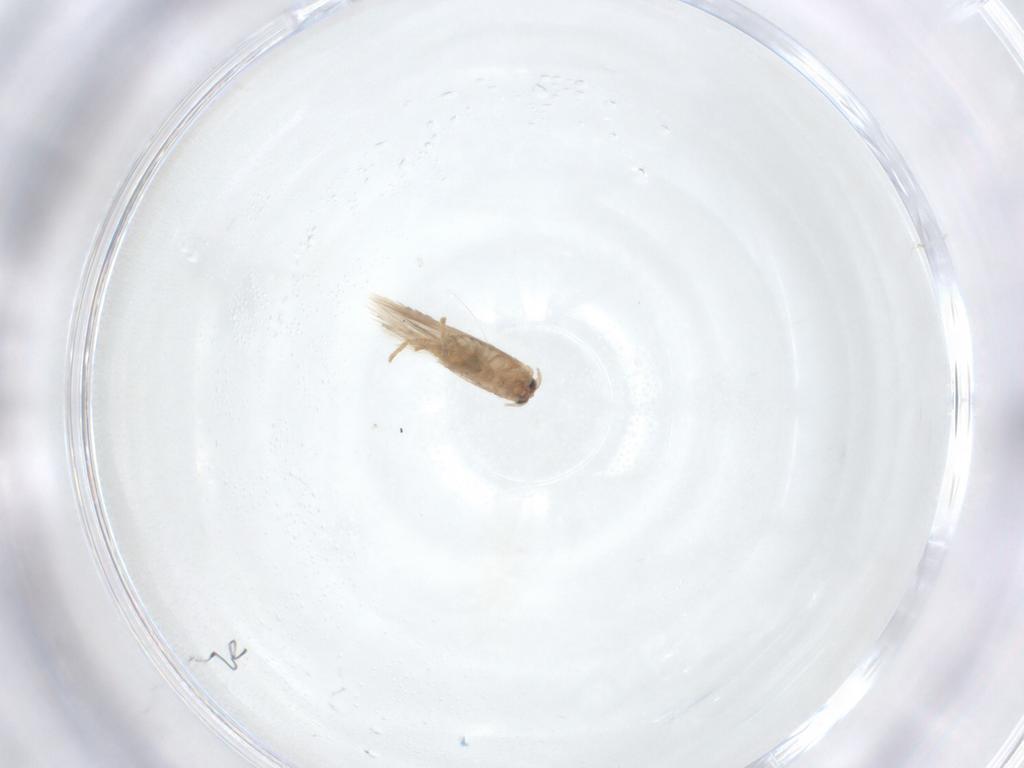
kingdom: Animalia
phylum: Arthropoda
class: Insecta
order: Lepidoptera
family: Nepticulidae
